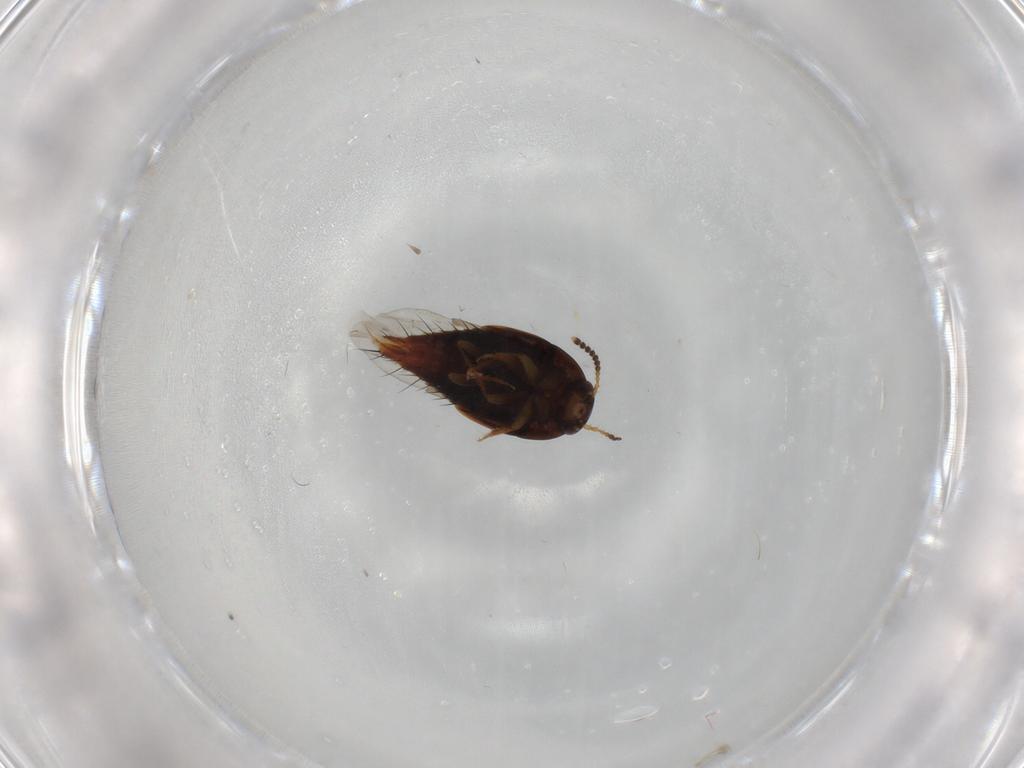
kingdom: Animalia
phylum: Arthropoda
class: Insecta
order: Coleoptera
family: Staphylinidae
